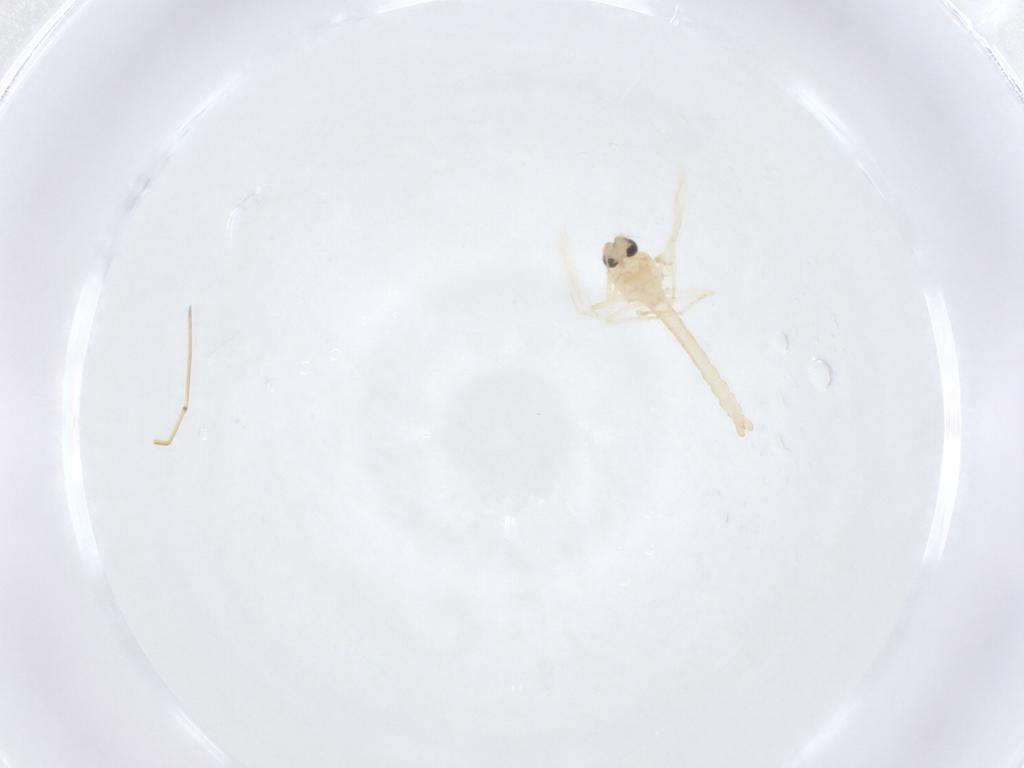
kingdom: Animalia
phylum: Arthropoda
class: Insecta
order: Diptera
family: Ceratopogonidae
